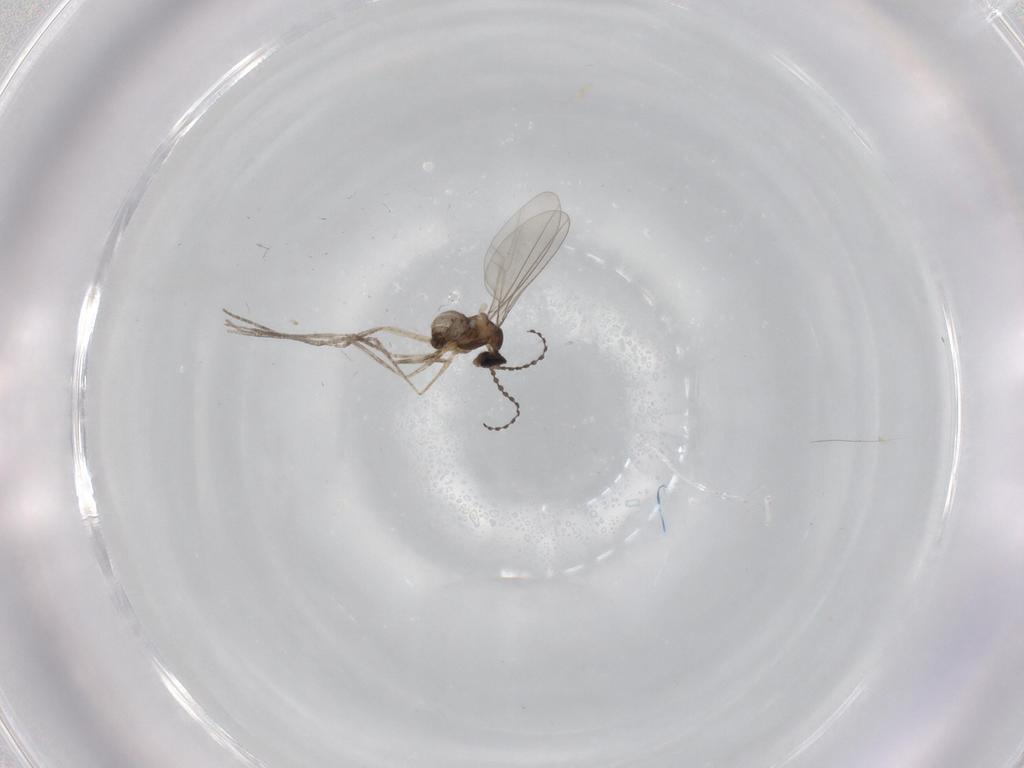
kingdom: Animalia
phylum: Arthropoda
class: Insecta
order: Diptera
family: Cecidomyiidae
